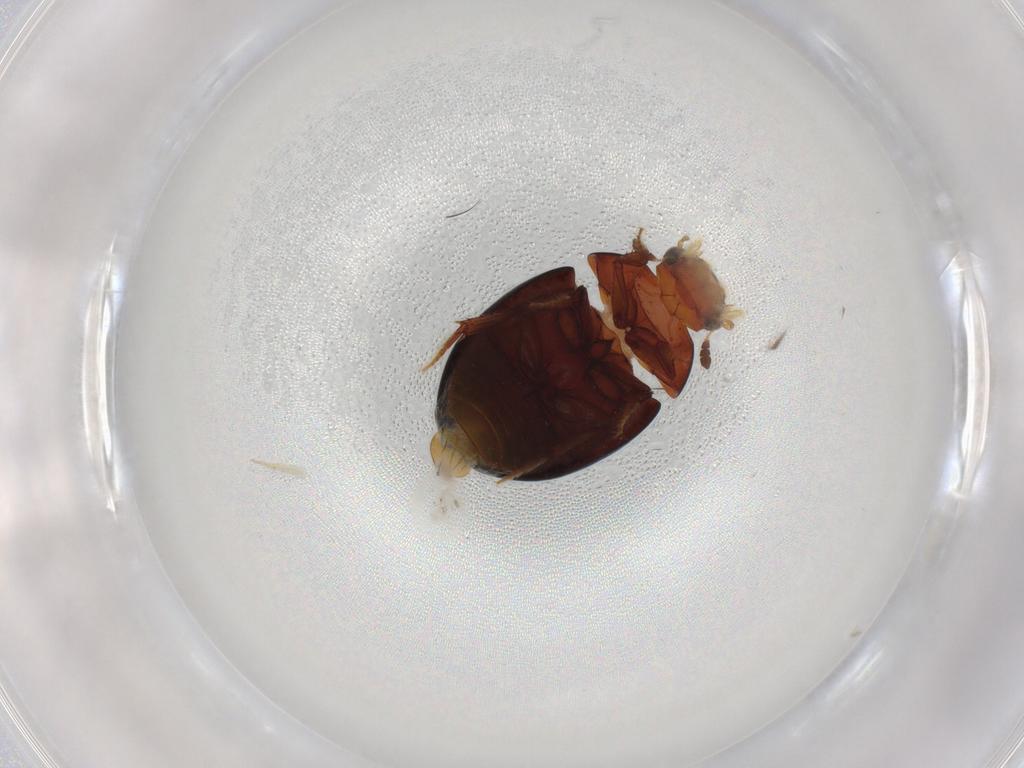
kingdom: Animalia
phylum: Arthropoda
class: Insecta
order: Coleoptera
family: Hydrophilidae
